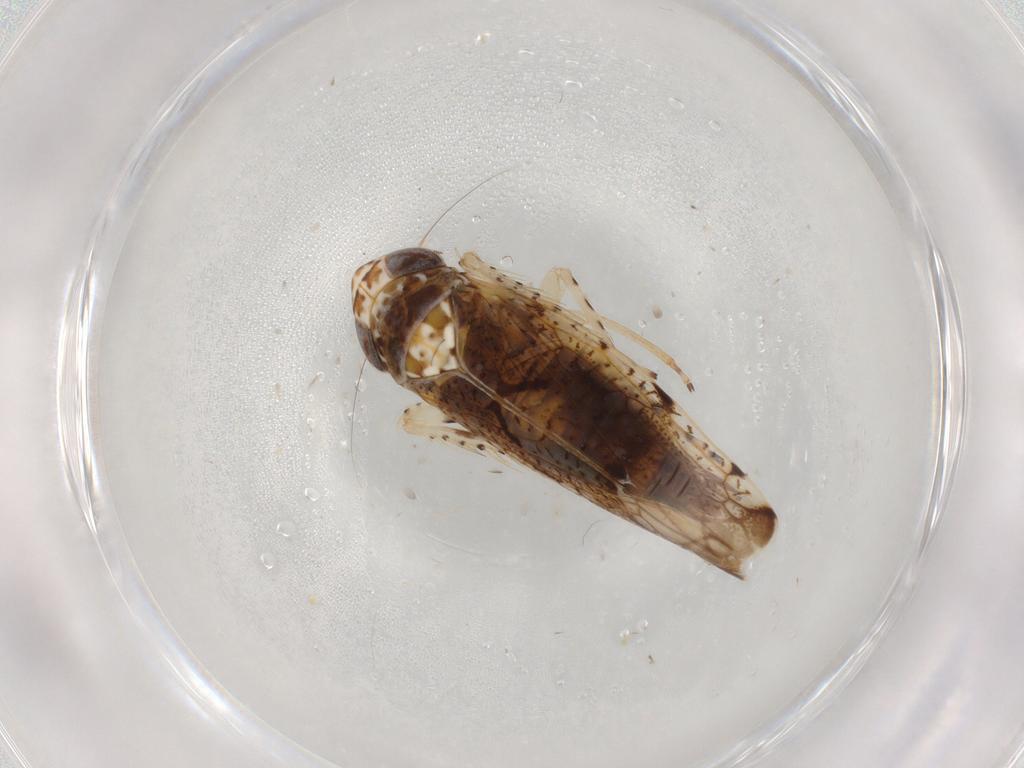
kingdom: Animalia
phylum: Arthropoda
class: Insecta
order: Hemiptera
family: Cicadellidae
